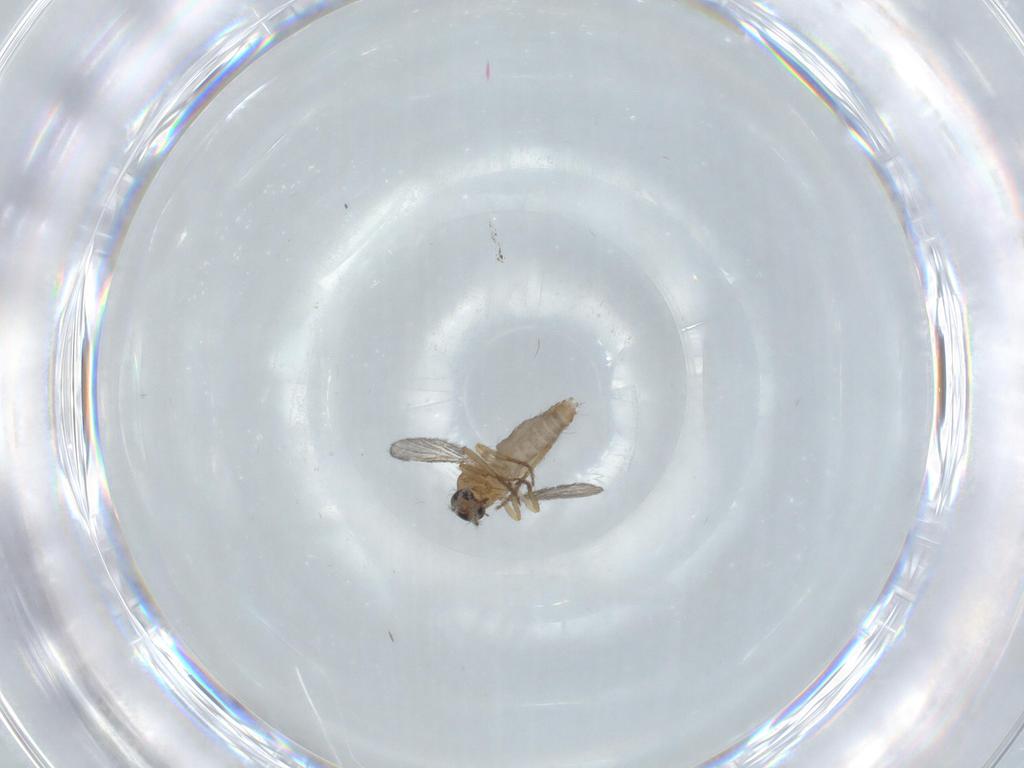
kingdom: Animalia
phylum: Arthropoda
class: Insecta
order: Diptera
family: Ceratopogonidae
